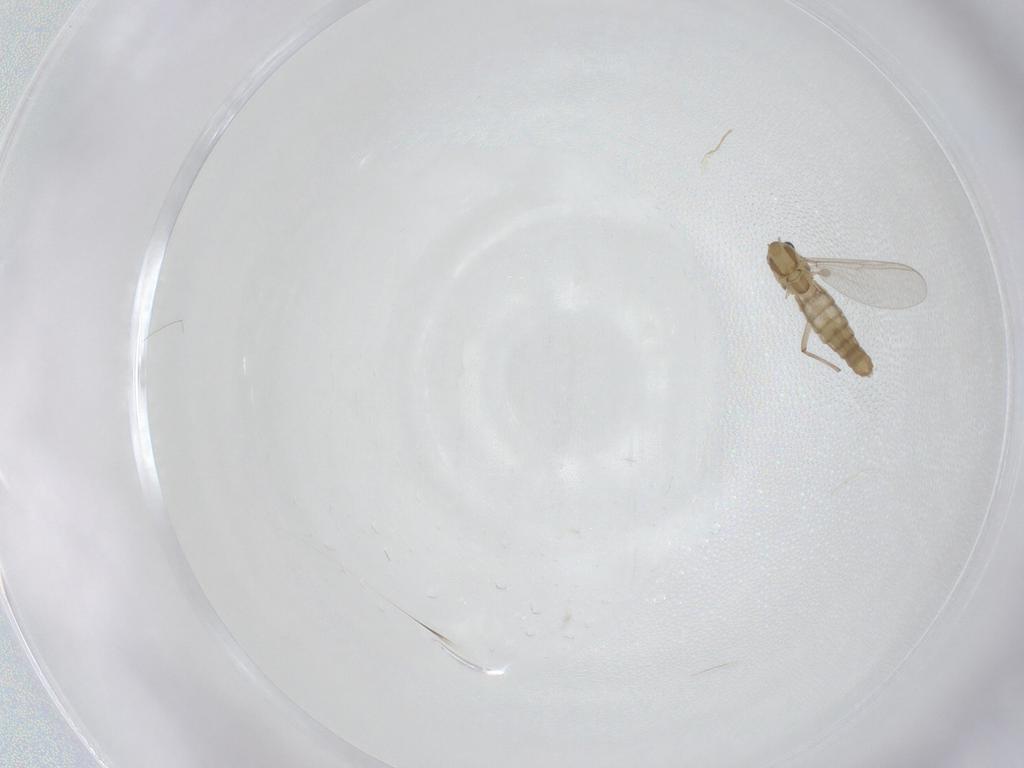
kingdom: Animalia
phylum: Arthropoda
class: Insecta
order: Diptera
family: Chironomidae
